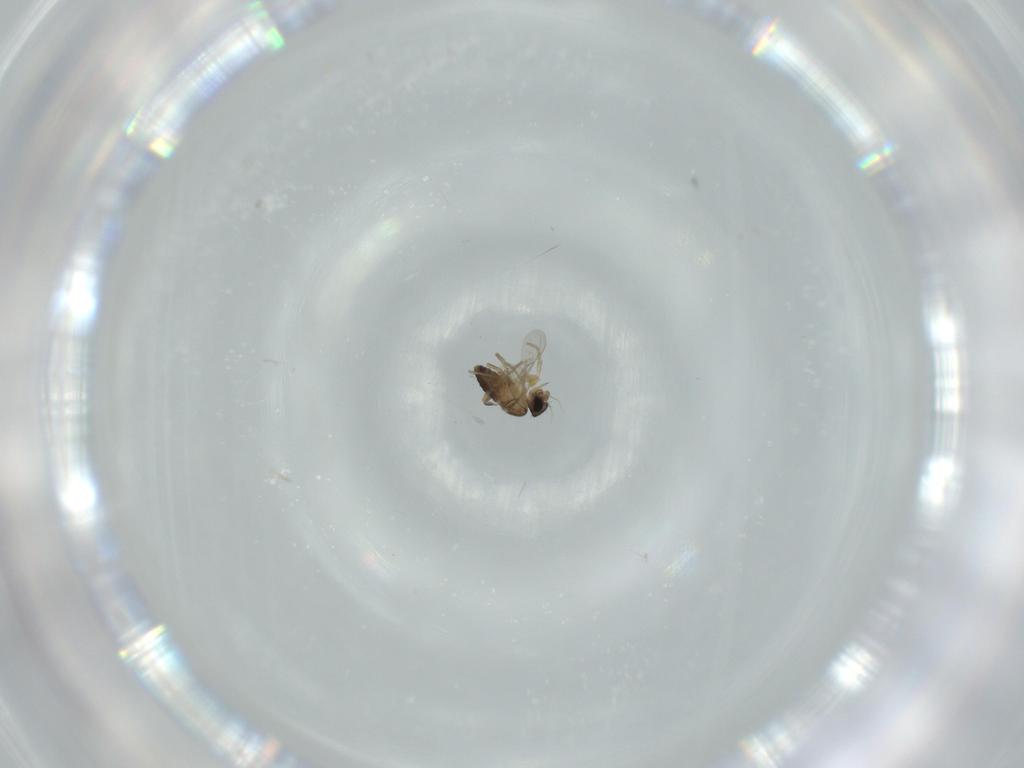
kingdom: Animalia
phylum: Arthropoda
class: Insecta
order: Diptera
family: Phoridae
